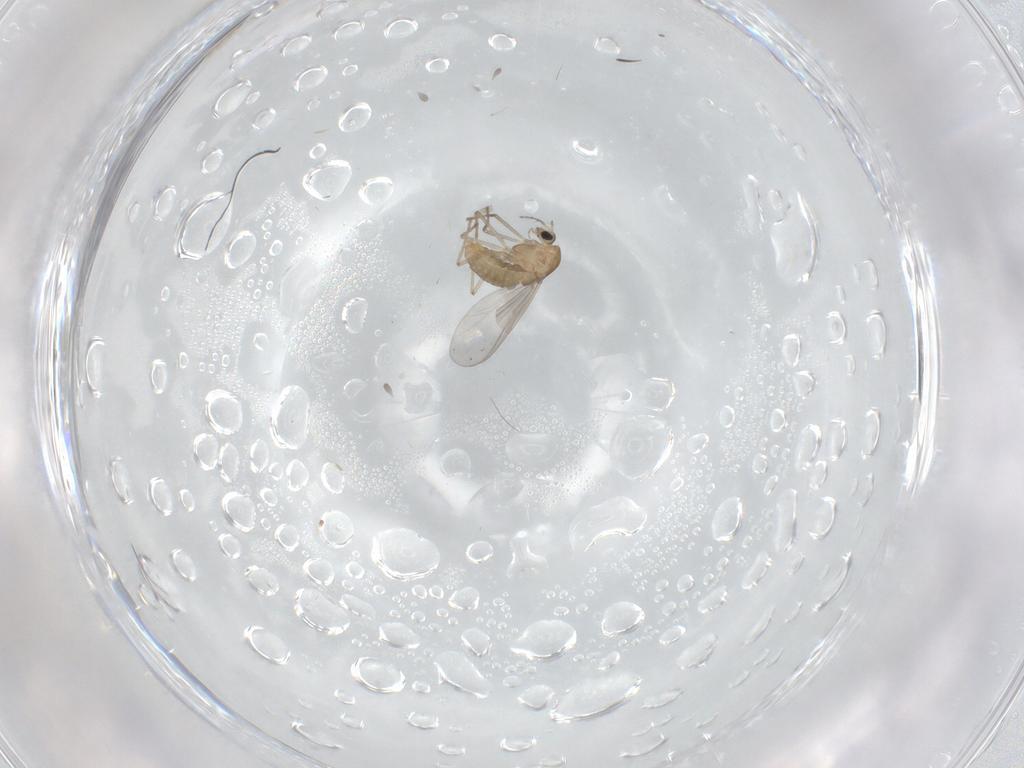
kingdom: Animalia
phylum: Arthropoda
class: Insecta
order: Diptera
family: Chironomidae
